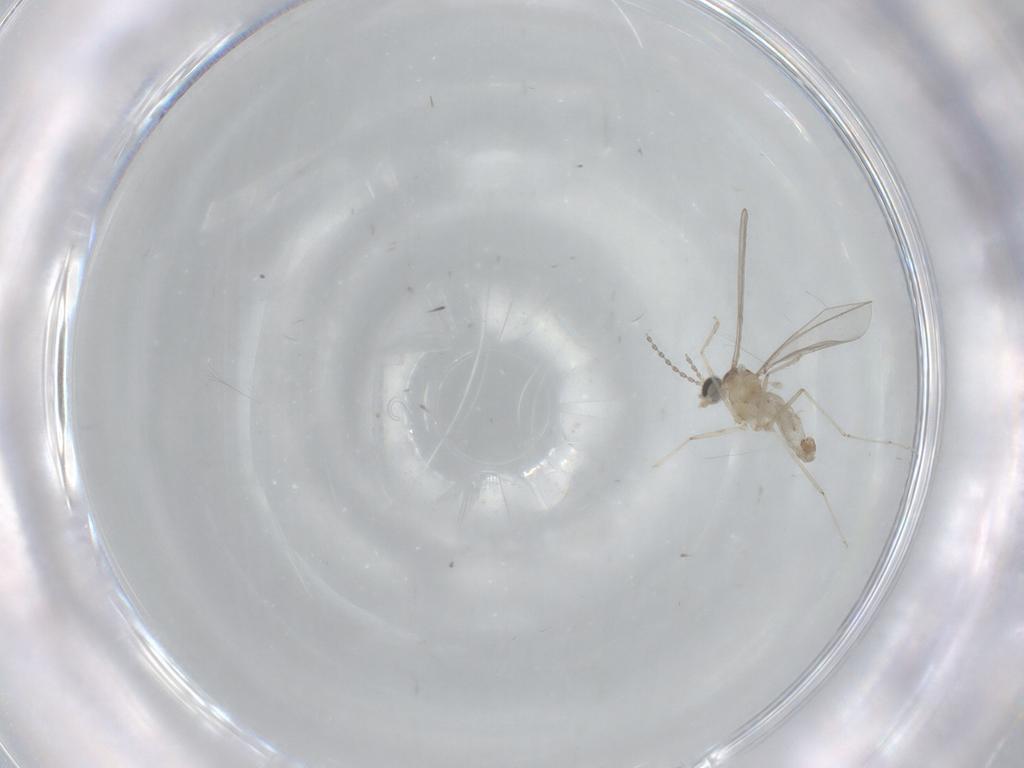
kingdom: Animalia
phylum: Arthropoda
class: Insecta
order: Diptera
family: Cecidomyiidae
